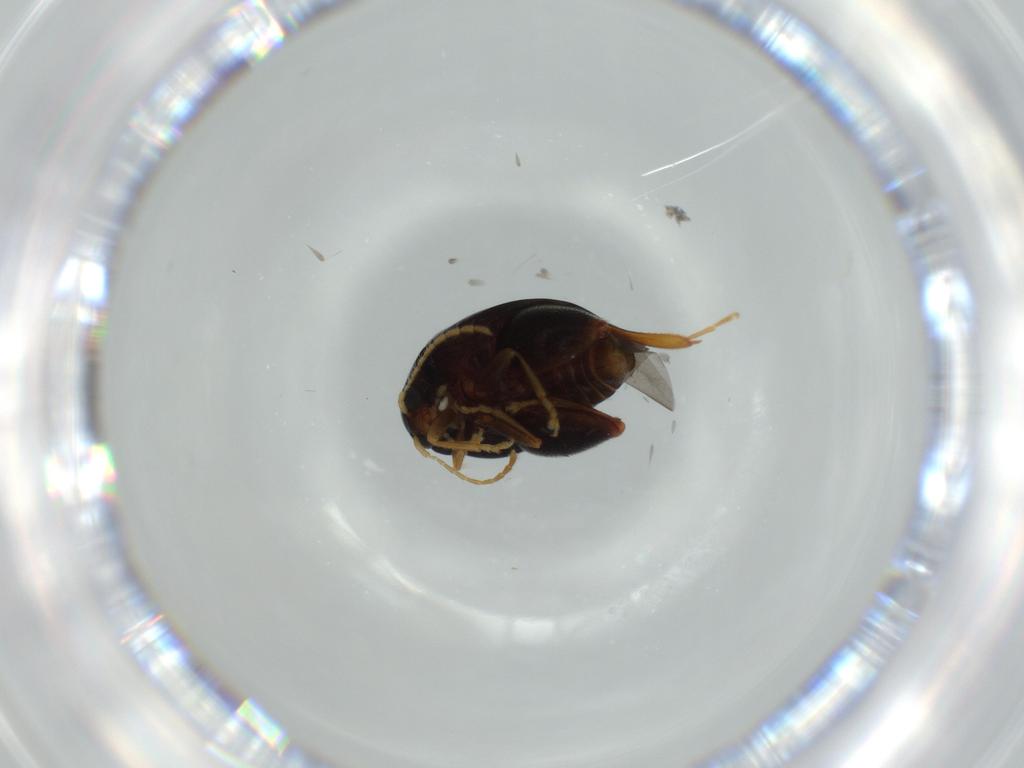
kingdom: Animalia
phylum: Arthropoda
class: Insecta
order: Coleoptera
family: Chrysomelidae
